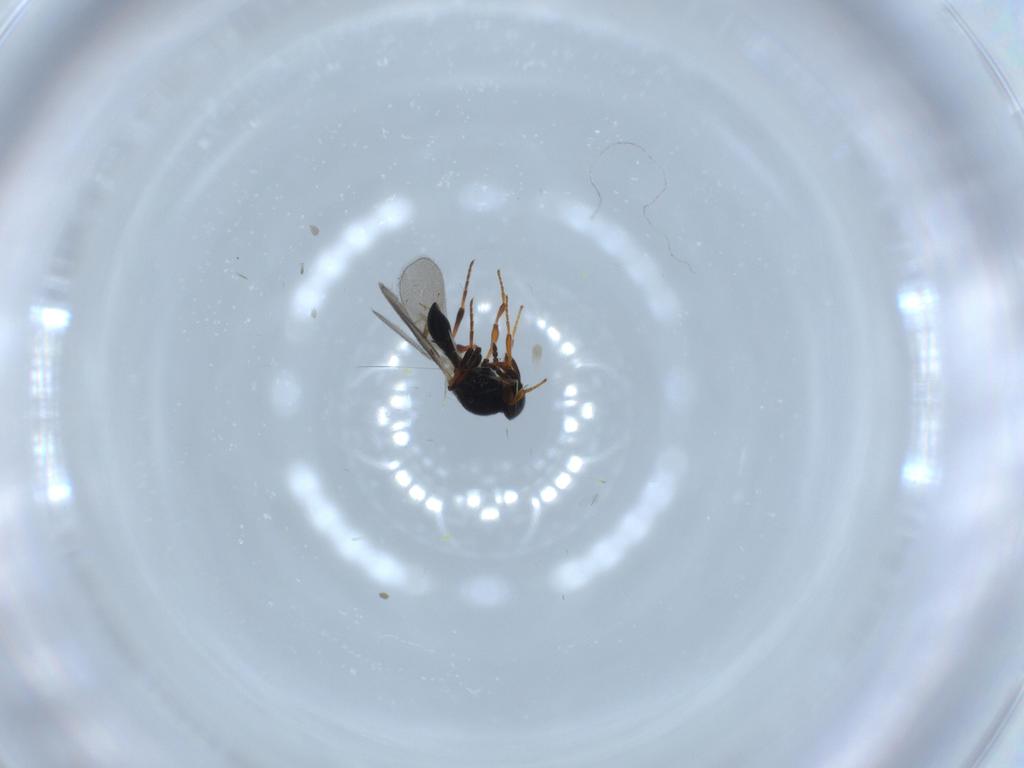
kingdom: Animalia
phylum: Arthropoda
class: Insecta
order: Hymenoptera
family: Platygastridae
